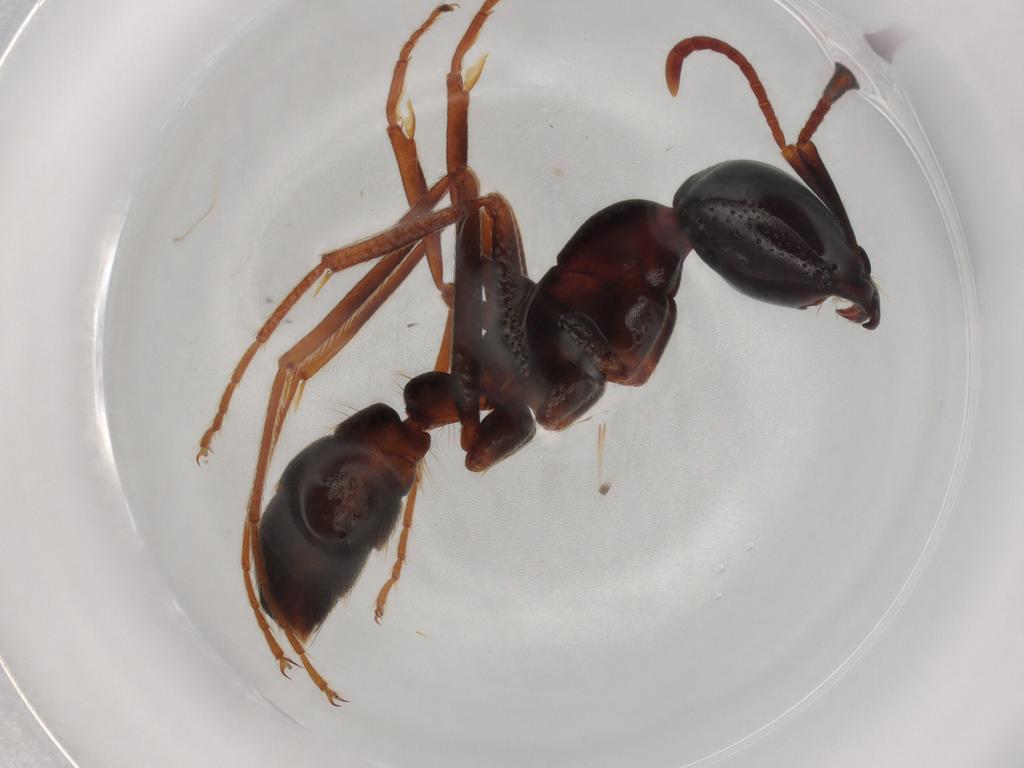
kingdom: Animalia
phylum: Arthropoda
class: Insecta
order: Hymenoptera
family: Formicidae
